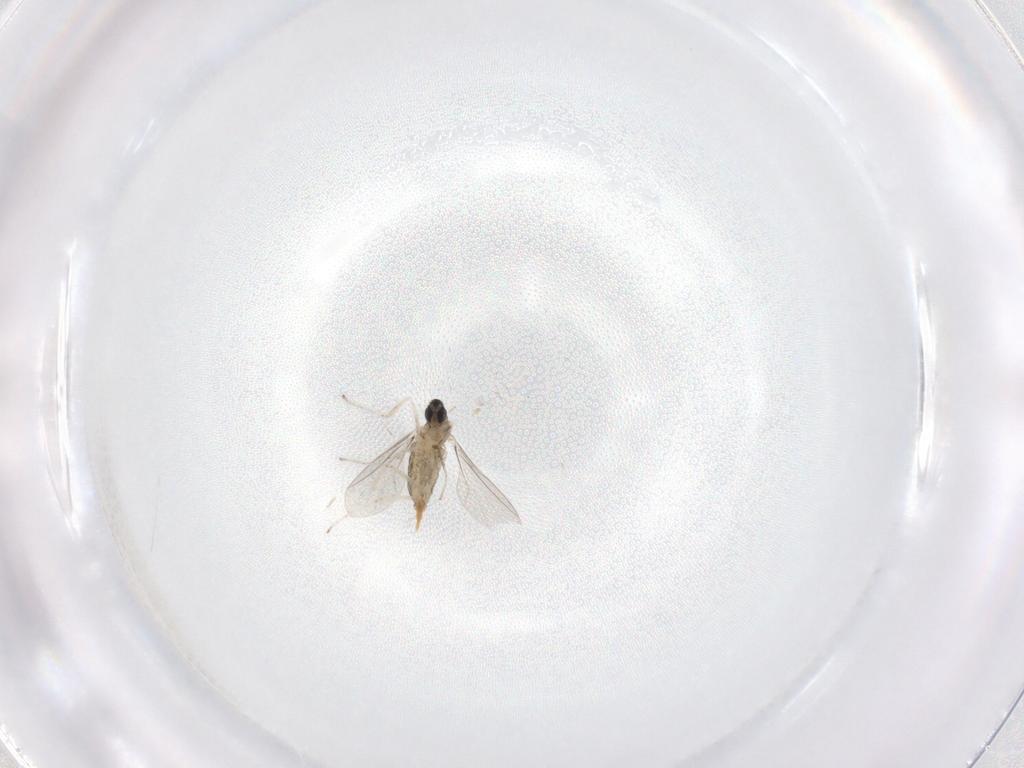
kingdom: Animalia
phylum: Arthropoda
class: Insecta
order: Diptera
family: Cecidomyiidae
